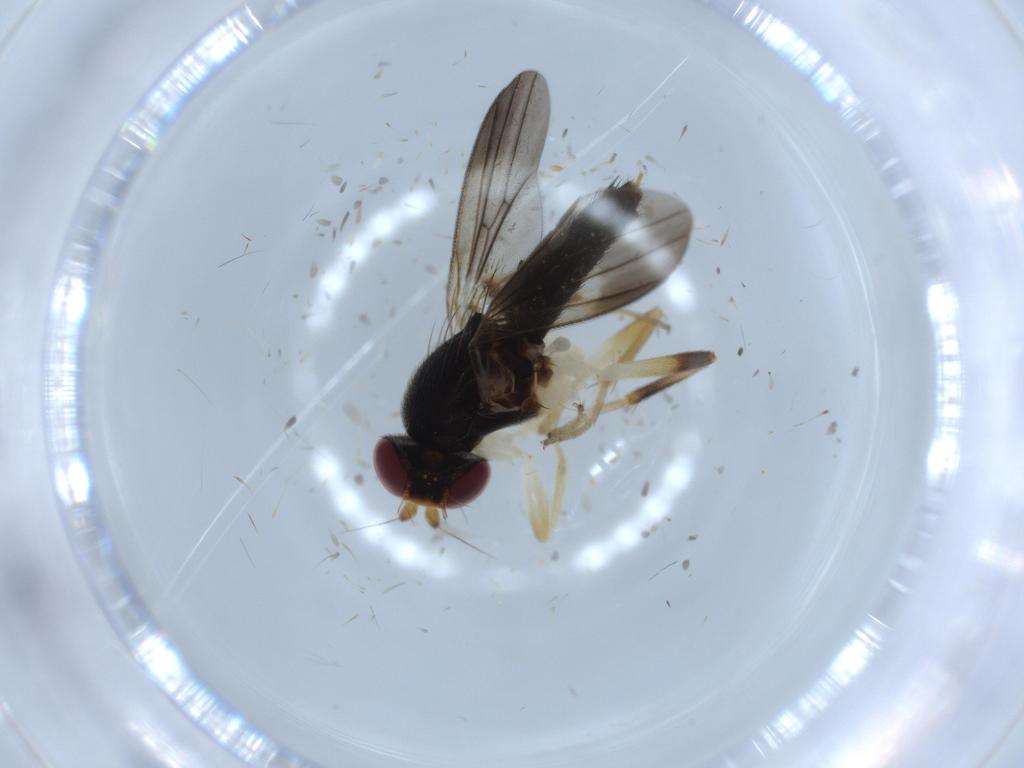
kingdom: Animalia
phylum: Arthropoda
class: Insecta
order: Diptera
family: Clusiidae
